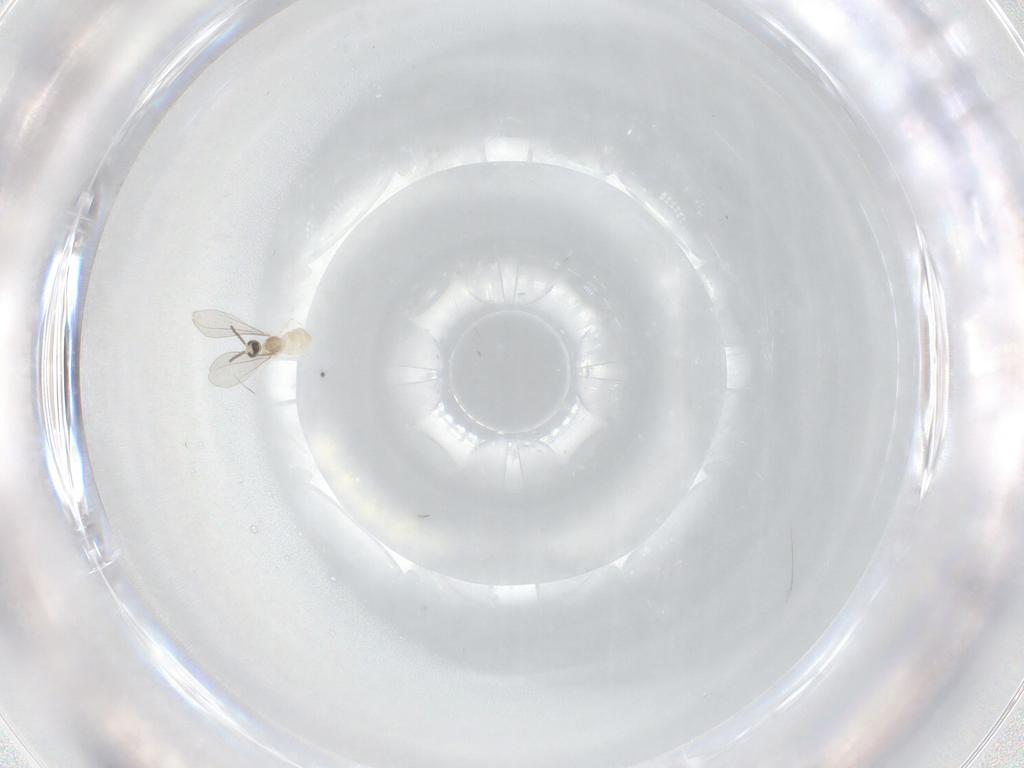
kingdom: Animalia
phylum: Arthropoda
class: Insecta
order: Diptera
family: Cecidomyiidae
